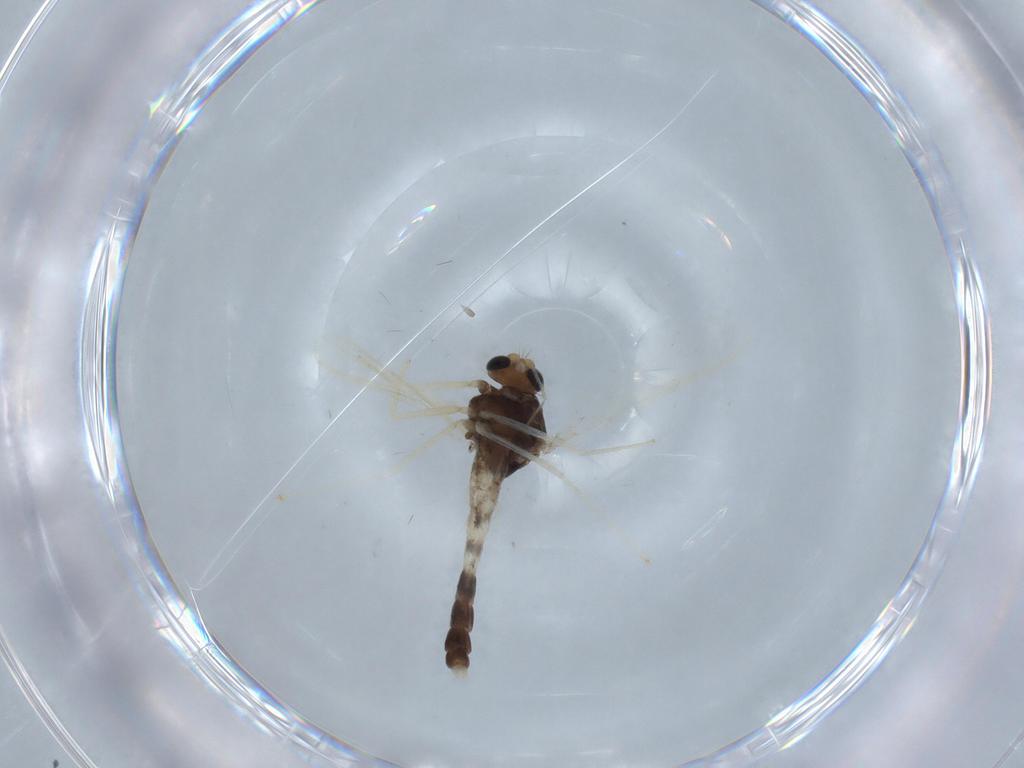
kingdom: Animalia
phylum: Arthropoda
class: Insecta
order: Diptera
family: Chironomidae
